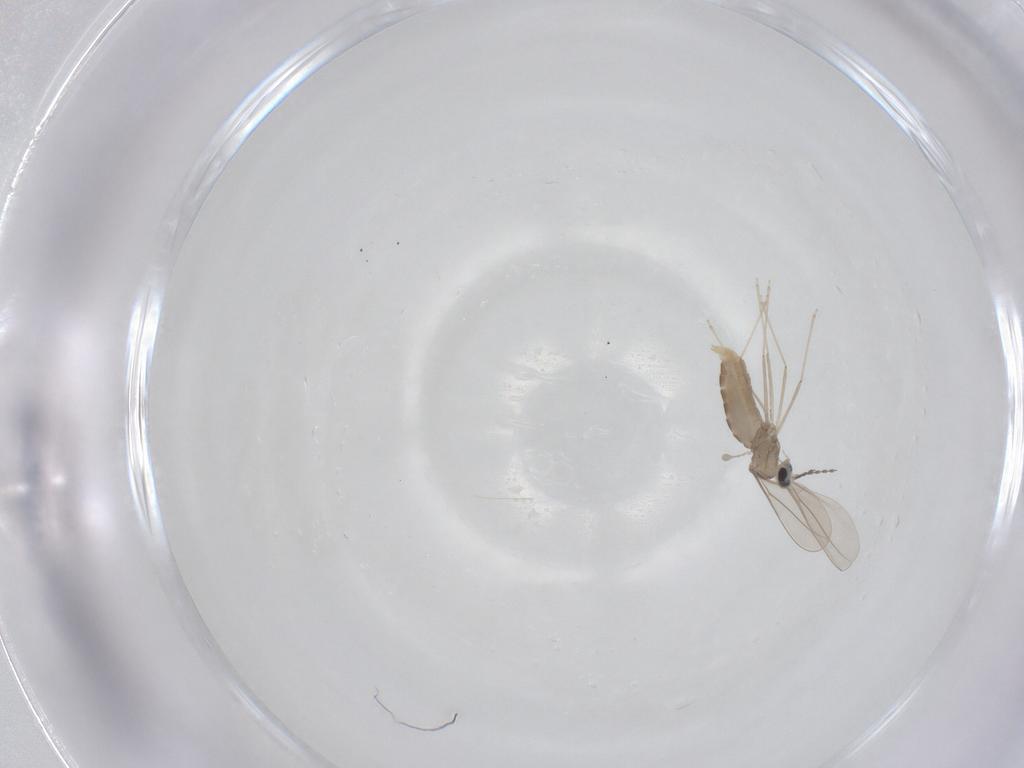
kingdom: Animalia
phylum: Arthropoda
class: Insecta
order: Diptera
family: Cecidomyiidae
